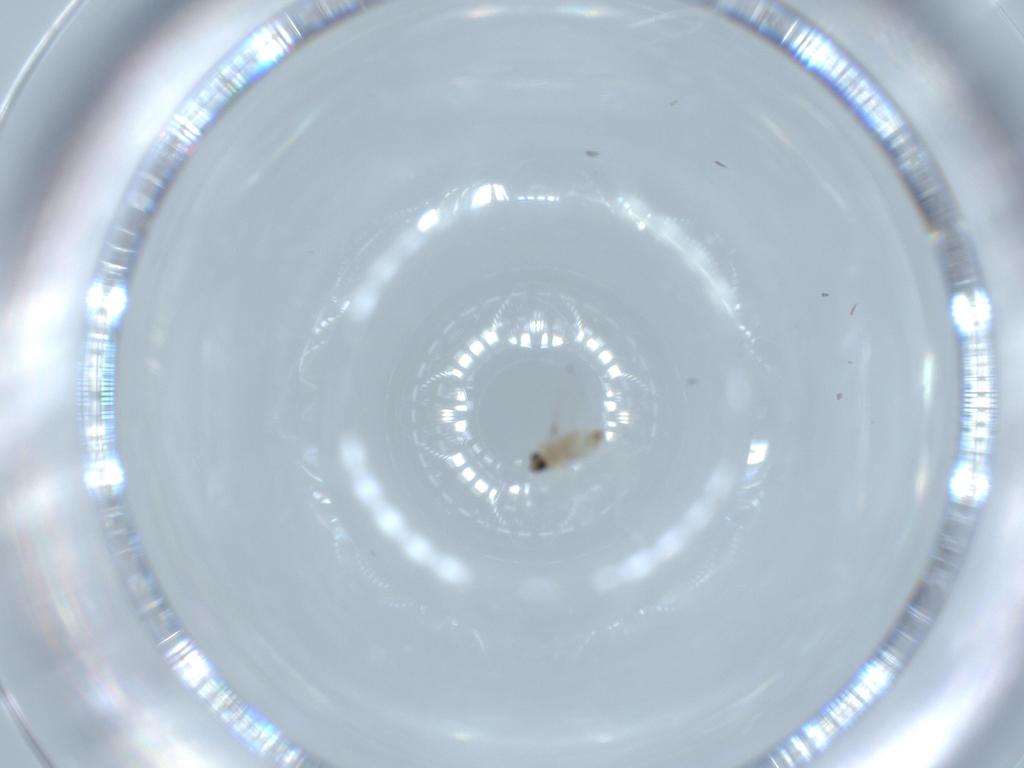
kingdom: Animalia
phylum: Arthropoda
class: Insecta
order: Diptera
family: Cecidomyiidae
